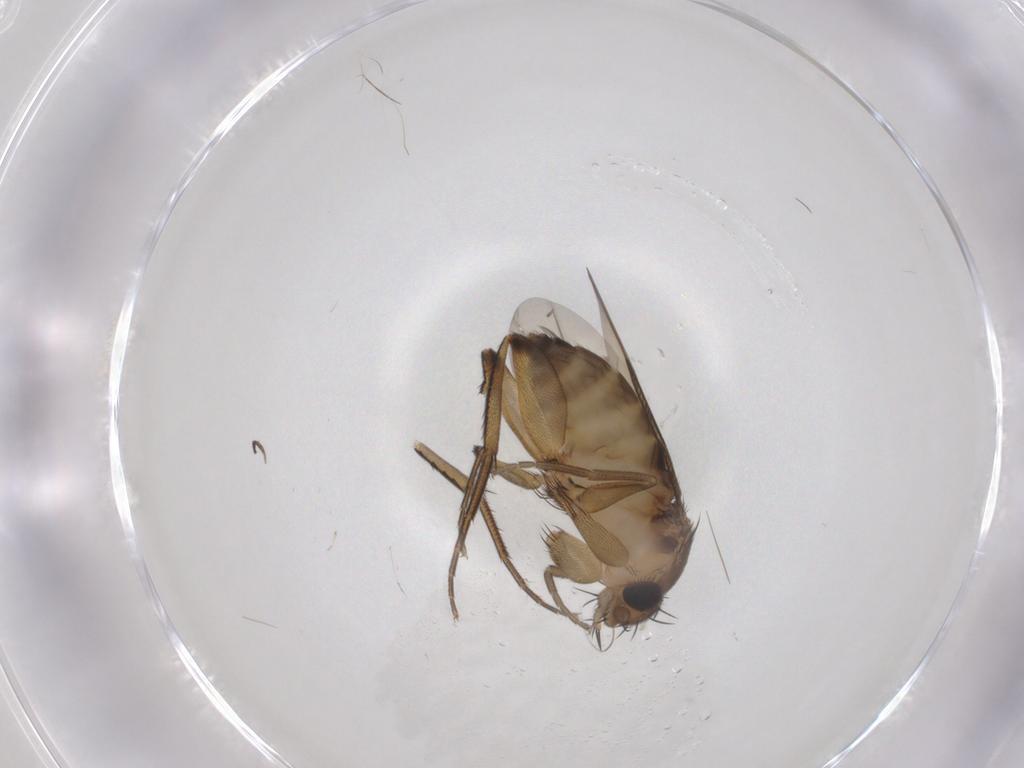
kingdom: Animalia
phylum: Arthropoda
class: Insecta
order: Diptera
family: Phoridae
